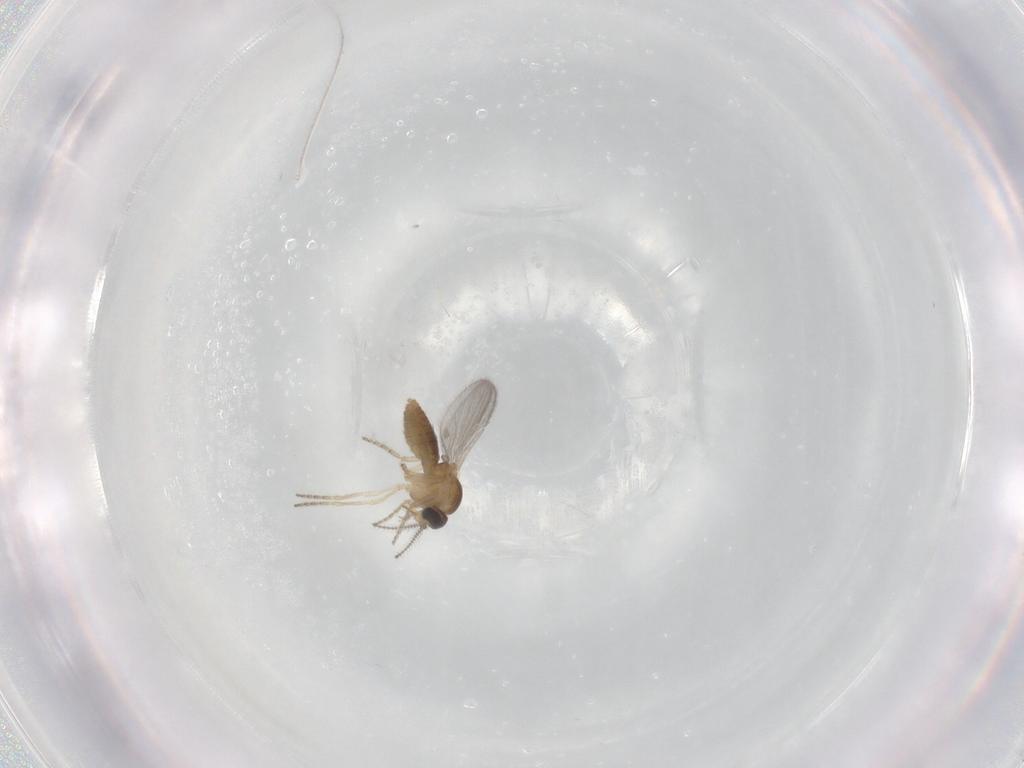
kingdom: Animalia
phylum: Arthropoda
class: Insecta
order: Diptera
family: Ceratopogonidae
